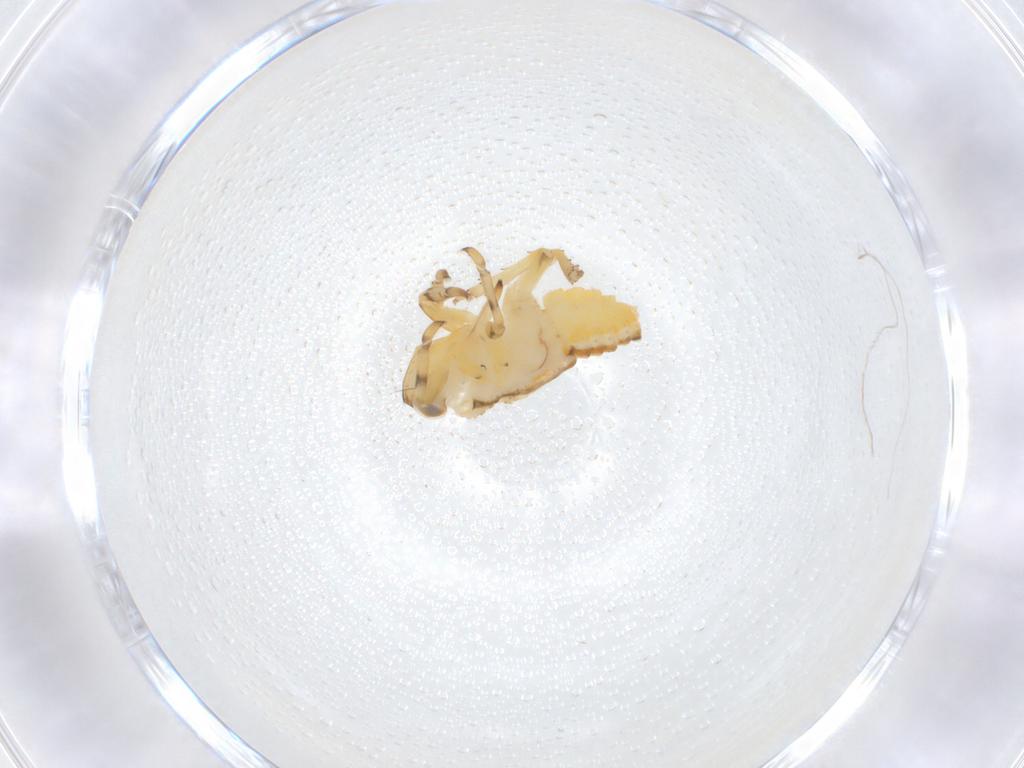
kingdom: Animalia
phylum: Arthropoda
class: Insecta
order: Hemiptera
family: Issidae
